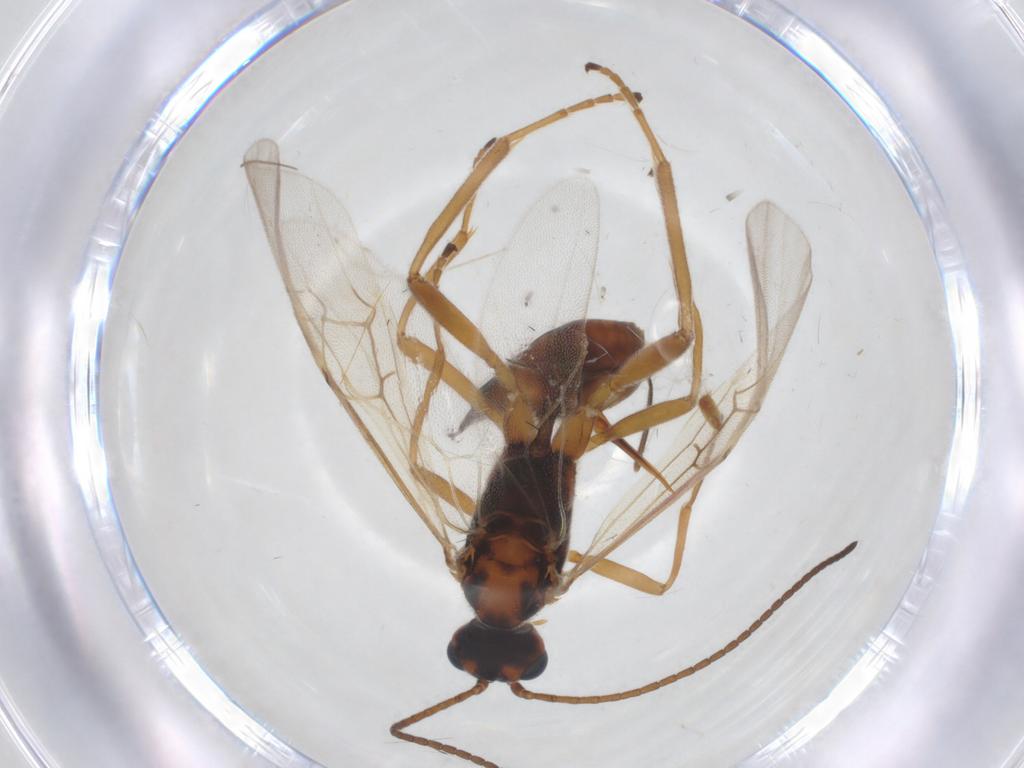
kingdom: Animalia
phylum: Arthropoda
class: Insecta
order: Hymenoptera
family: Braconidae
